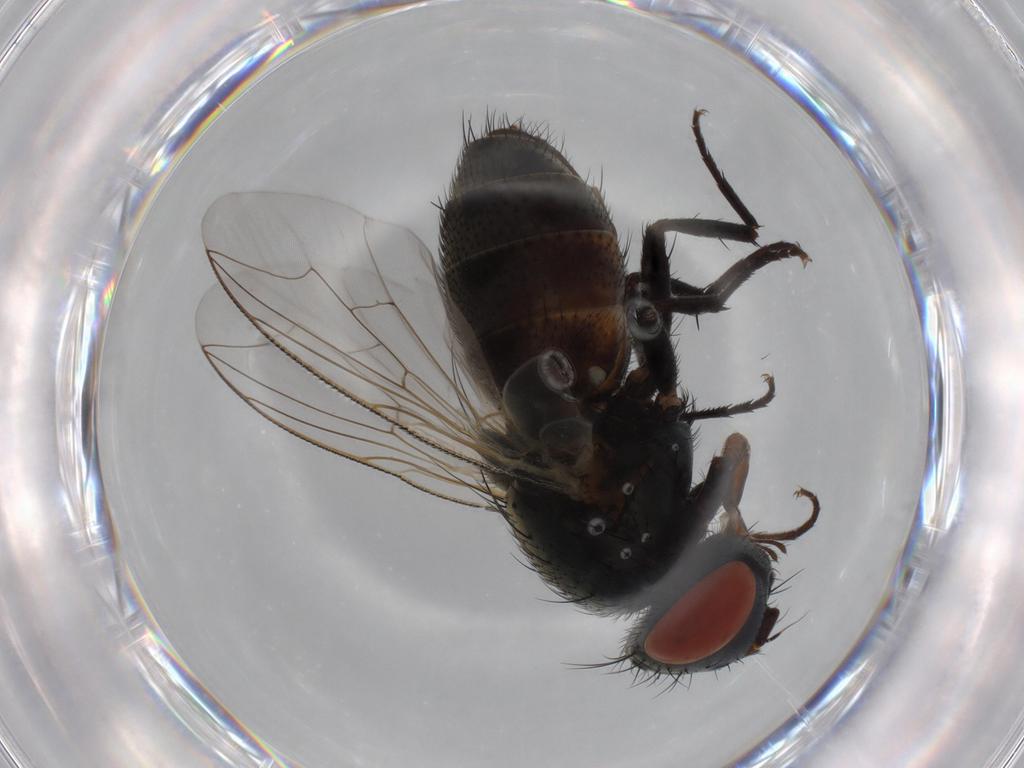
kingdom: Animalia
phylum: Arthropoda
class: Insecta
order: Diptera
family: Sarcophagidae
